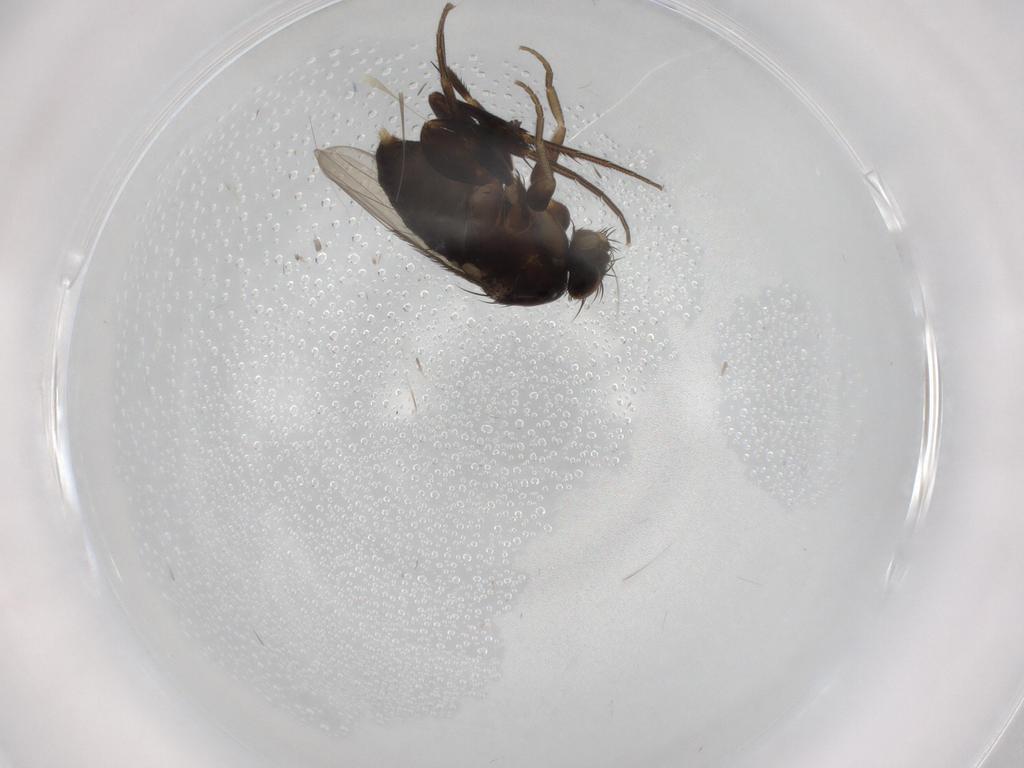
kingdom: Animalia
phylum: Arthropoda
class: Insecta
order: Diptera
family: Phoridae
